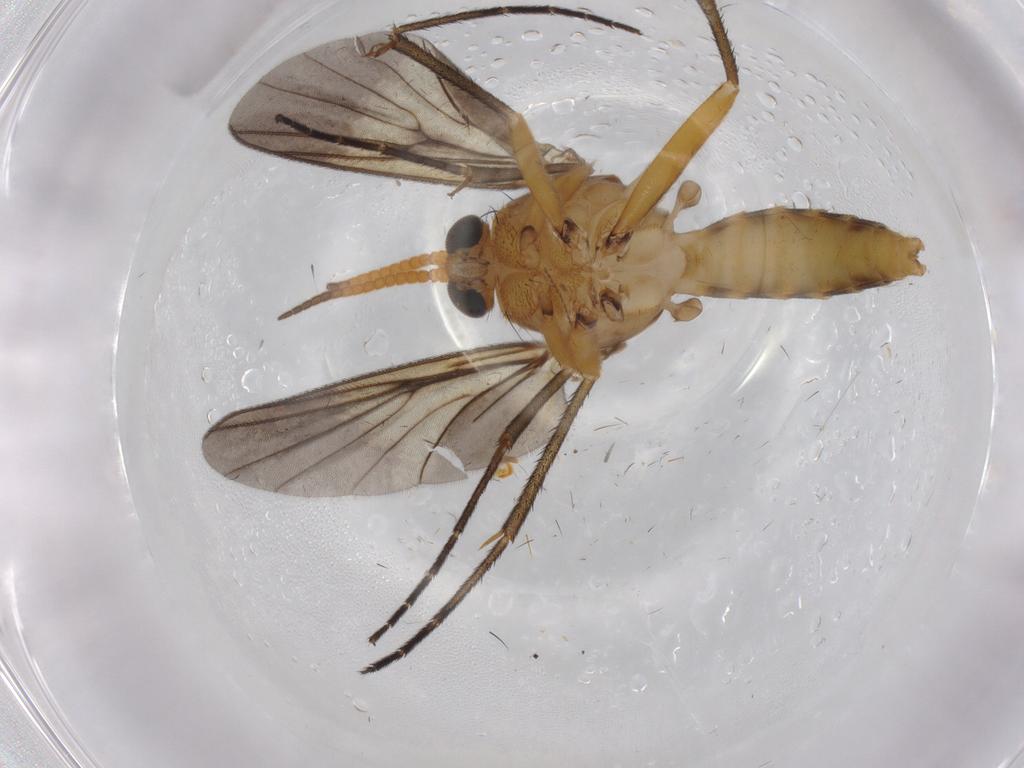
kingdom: Animalia
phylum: Arthropoda
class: Insecta
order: Diptera
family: Mycetophilidae
